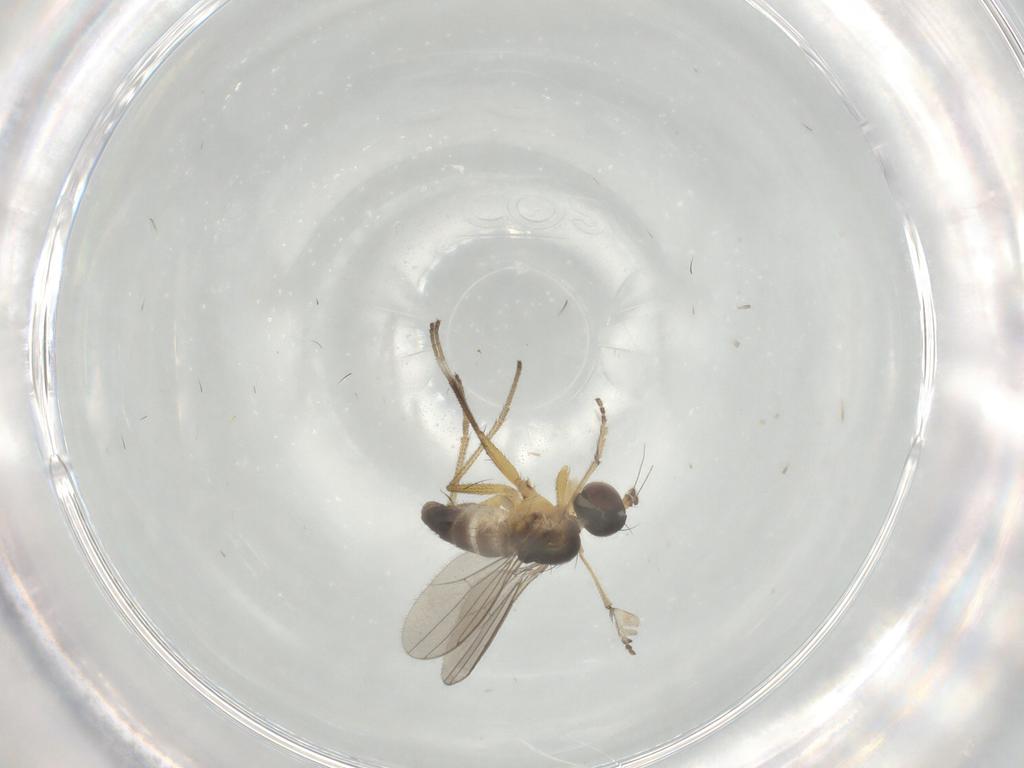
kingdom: Animalia
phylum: Arthropoda
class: Insecta
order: Diptera
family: Dolichopodidae
